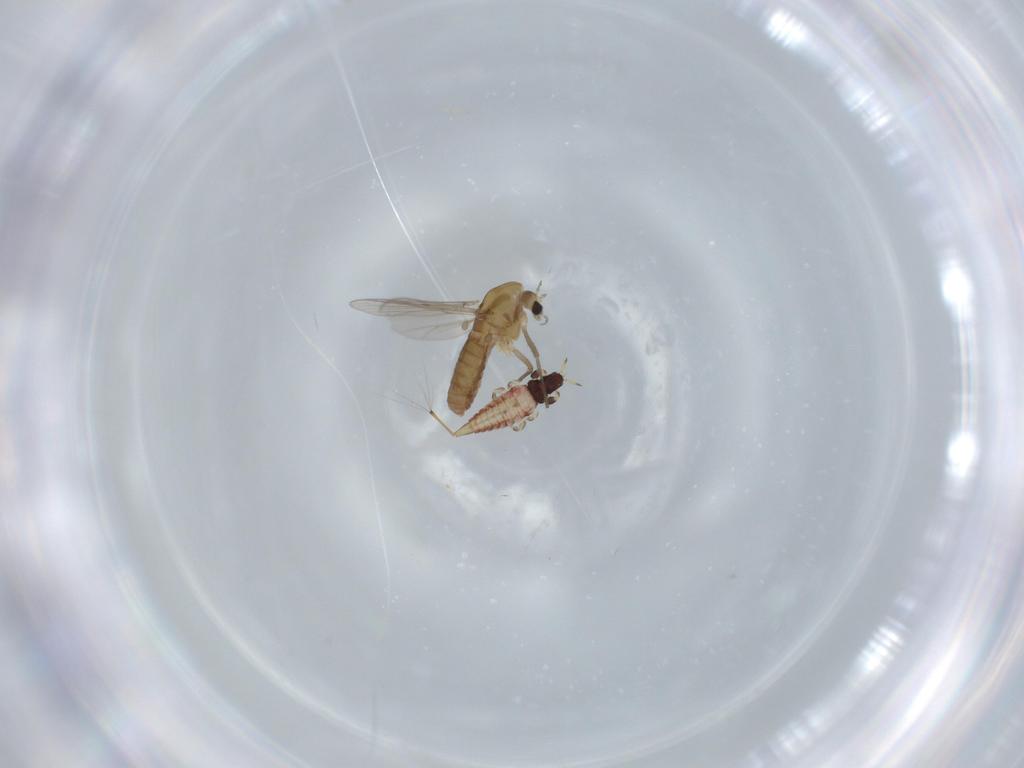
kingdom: Animalia
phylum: Arthropoda
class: Insecta
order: Diptera
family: Chironomidae
